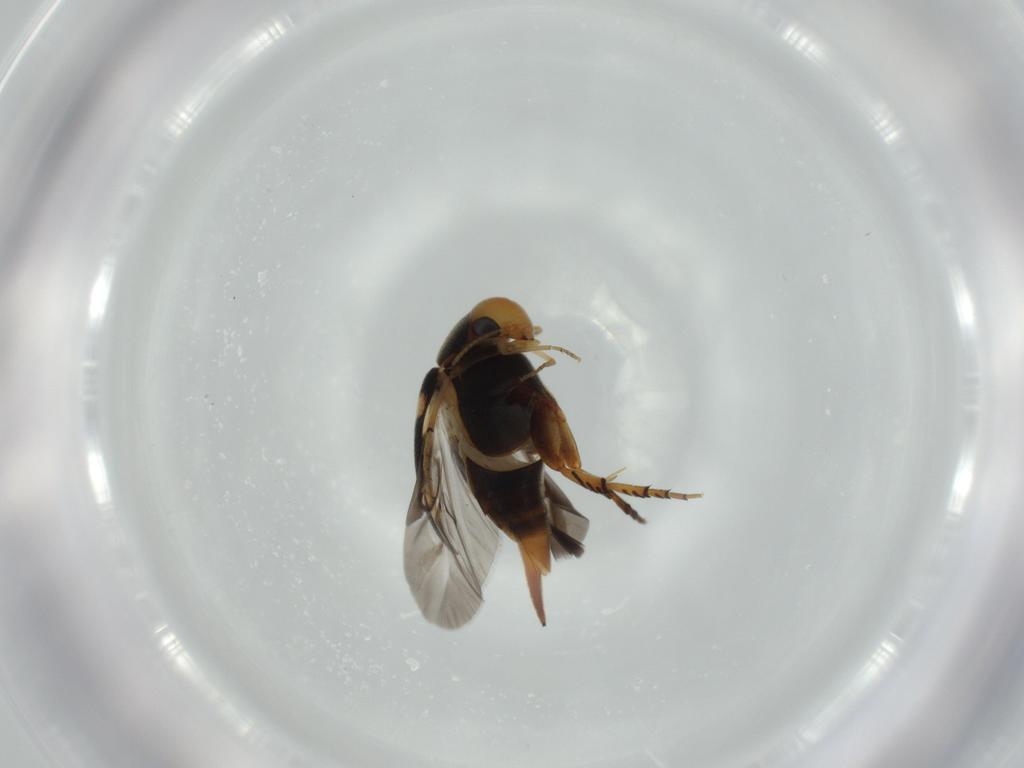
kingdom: Animalia
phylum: Arthropoda
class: Insecta
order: Coleoptera
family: Mordellidae
